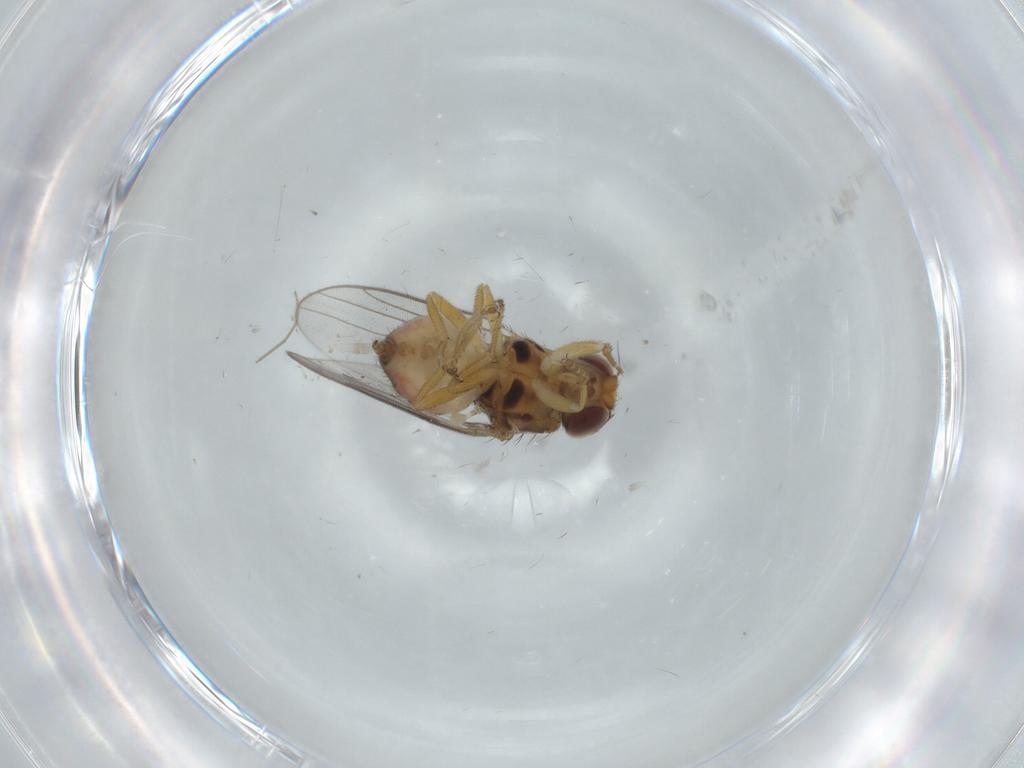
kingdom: Animalia
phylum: Arthropoda
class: Insecta
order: Diptera
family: Chloropidae
